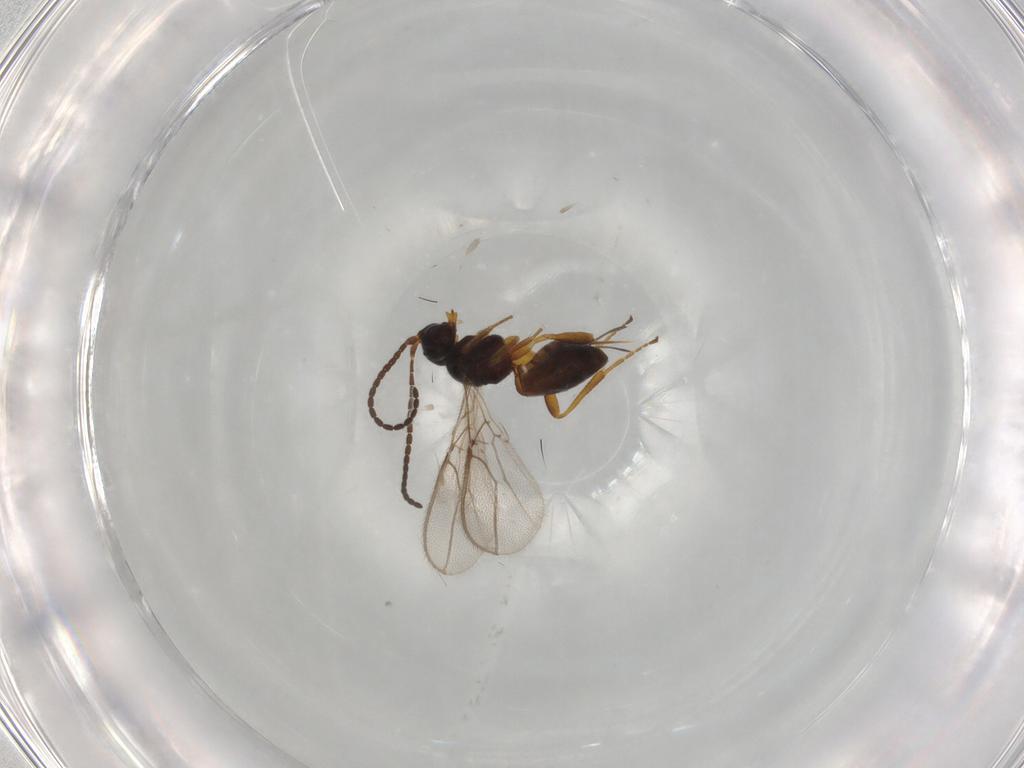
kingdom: Animalia
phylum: Arthropoda
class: Insecta
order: Hymenoptera
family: Braconidae
